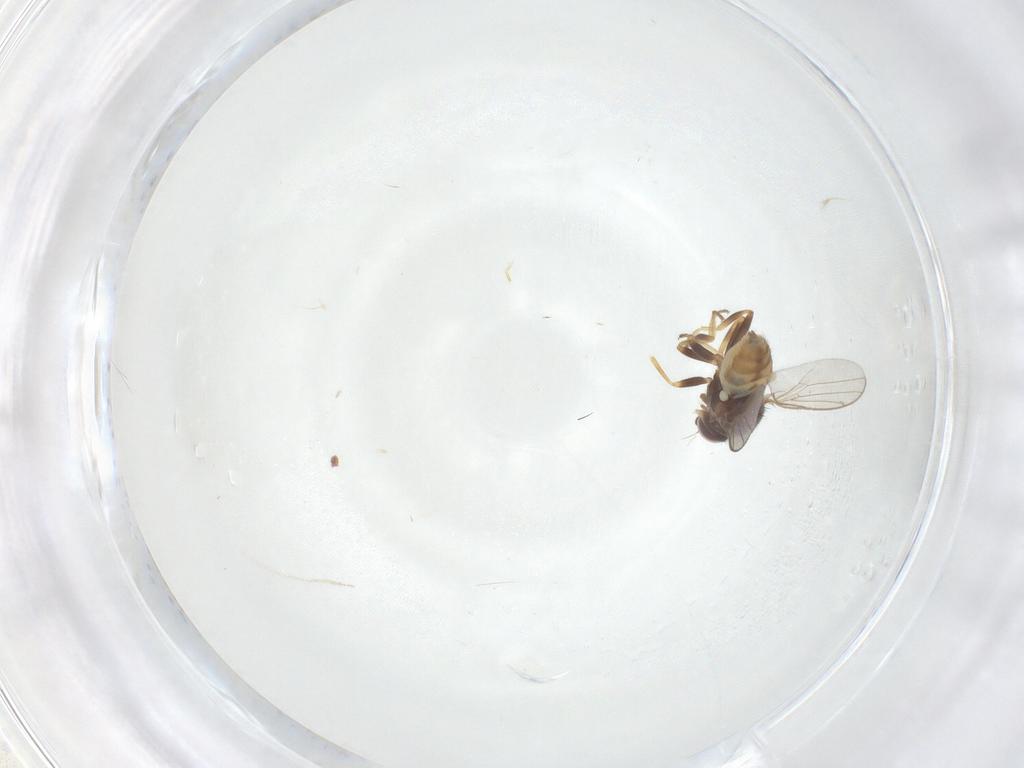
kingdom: Animalia
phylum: Arthropoda
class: Insecta
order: Diptera
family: Chloropidae
